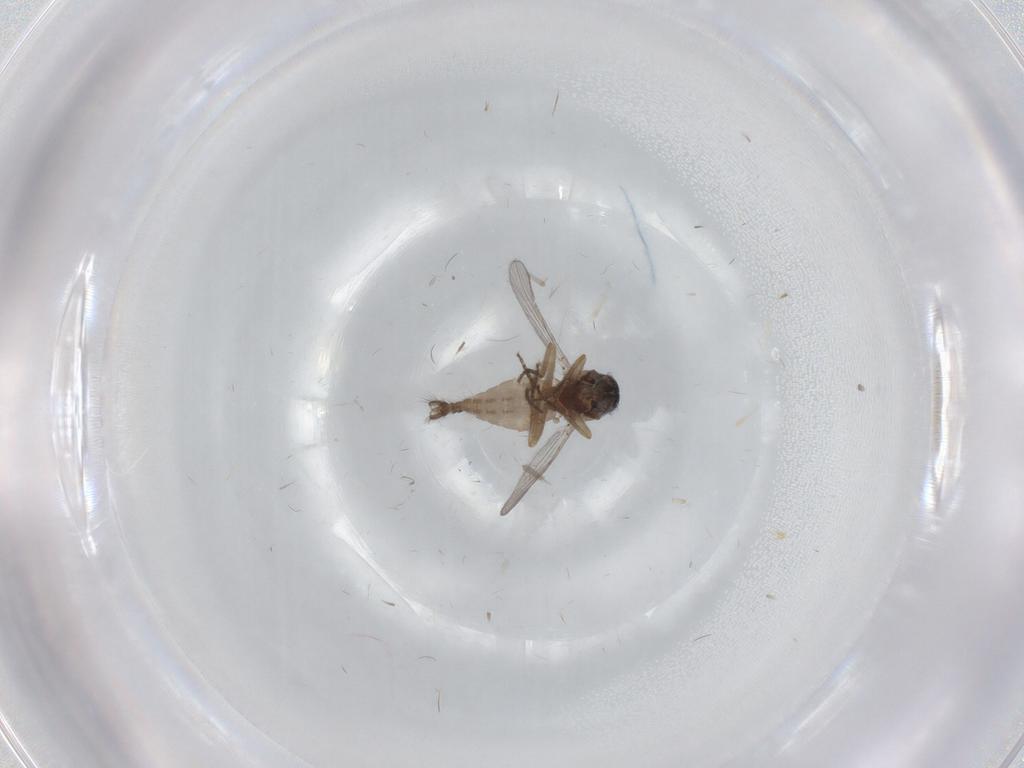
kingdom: Animalia
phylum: Arthropoda
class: Insecta
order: Diptera
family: Psychodidae
